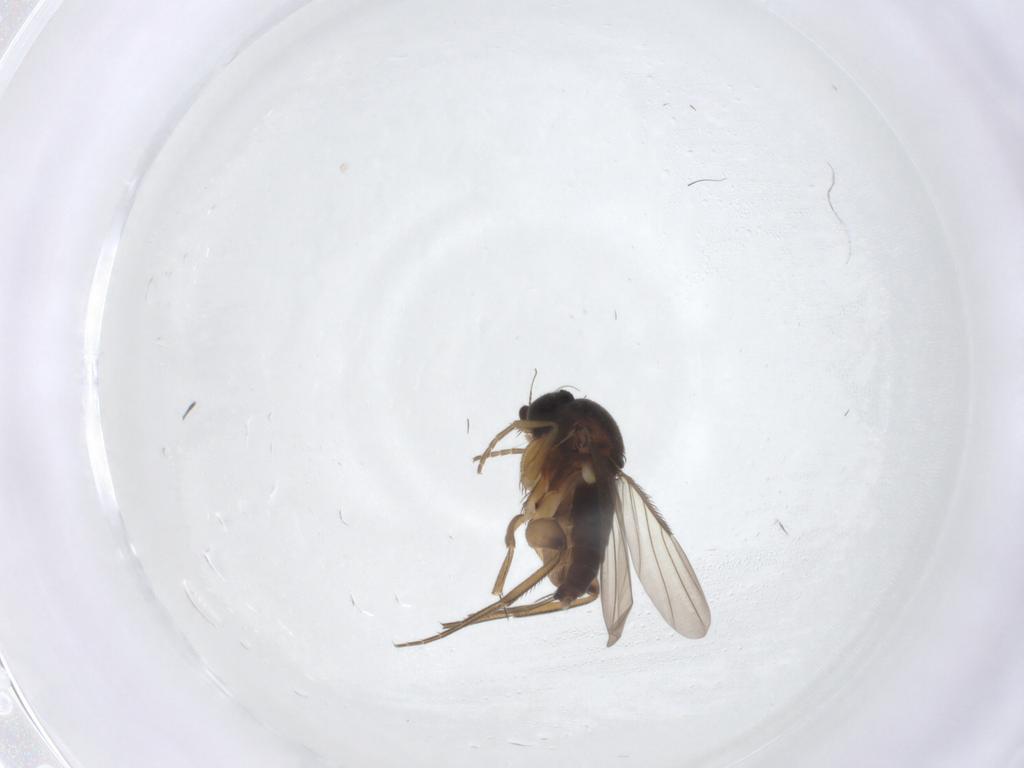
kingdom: Animalia
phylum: Arthropoda
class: Insecta
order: Diptera
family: Phoridae
